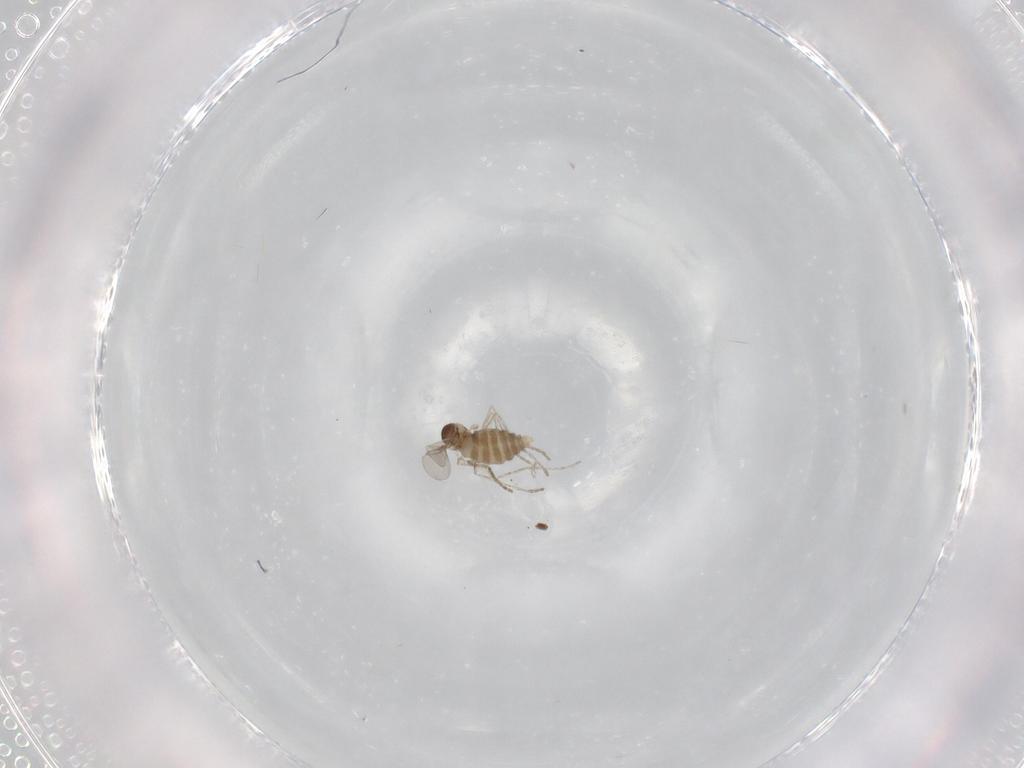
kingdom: Animalia
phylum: Arthropoda
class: Insecta
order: Diptera
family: Cecidomyiidae
